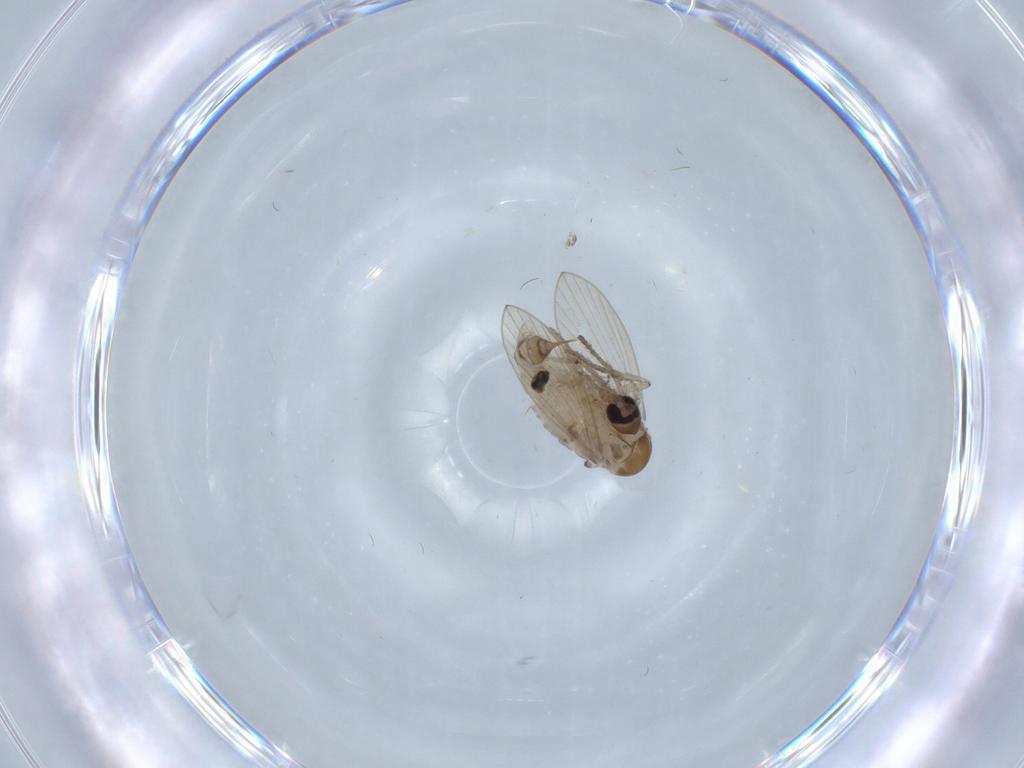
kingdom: Animalia
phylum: Arthropoda
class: Insecta
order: Diptera
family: Psychodidae
